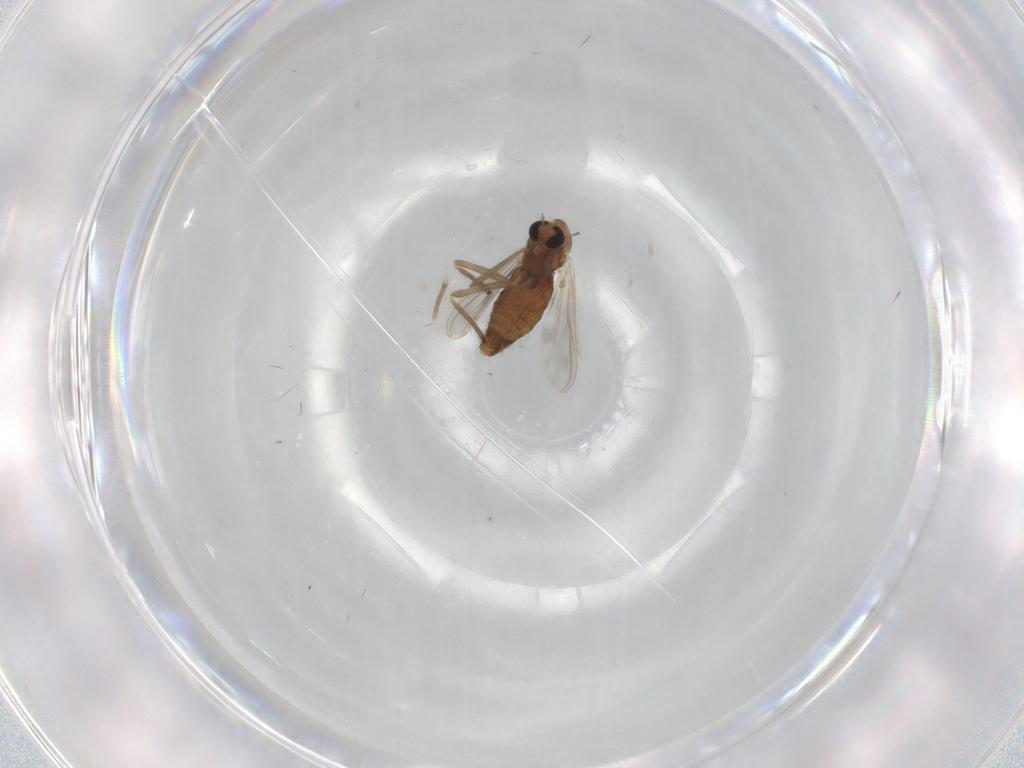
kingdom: Animalia
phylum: Arthropoda
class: Insecta
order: Diptera
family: Chironomidae
